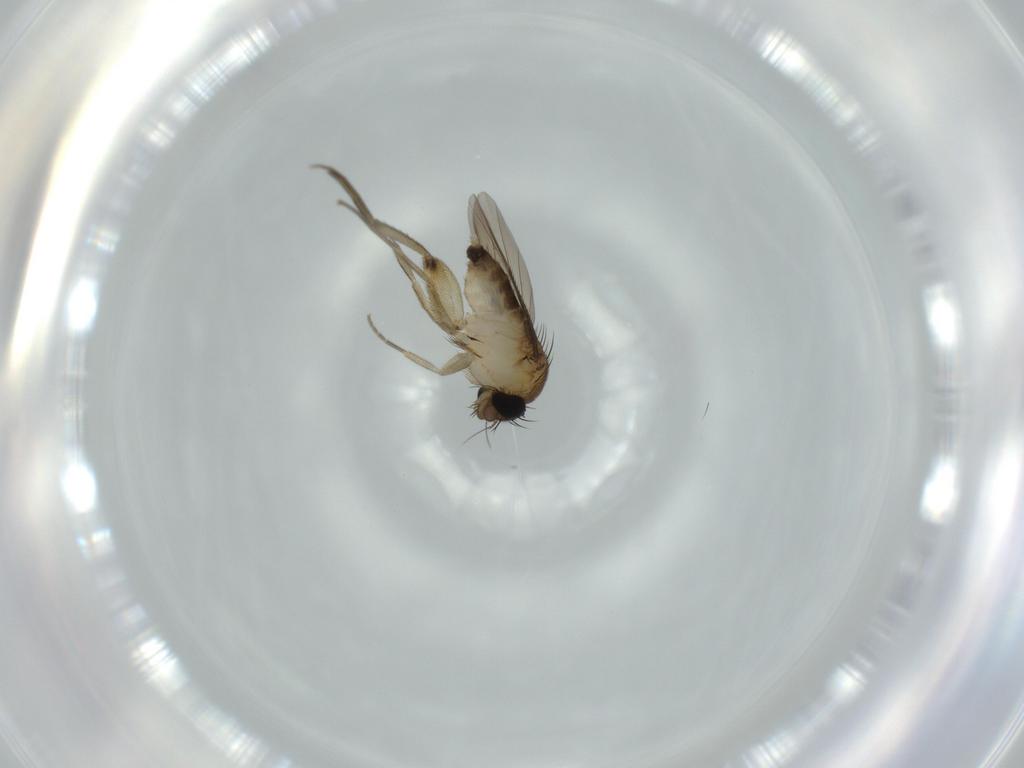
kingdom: Animalia
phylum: Arthropoda
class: Insecta
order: Diptera
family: Phoridae
